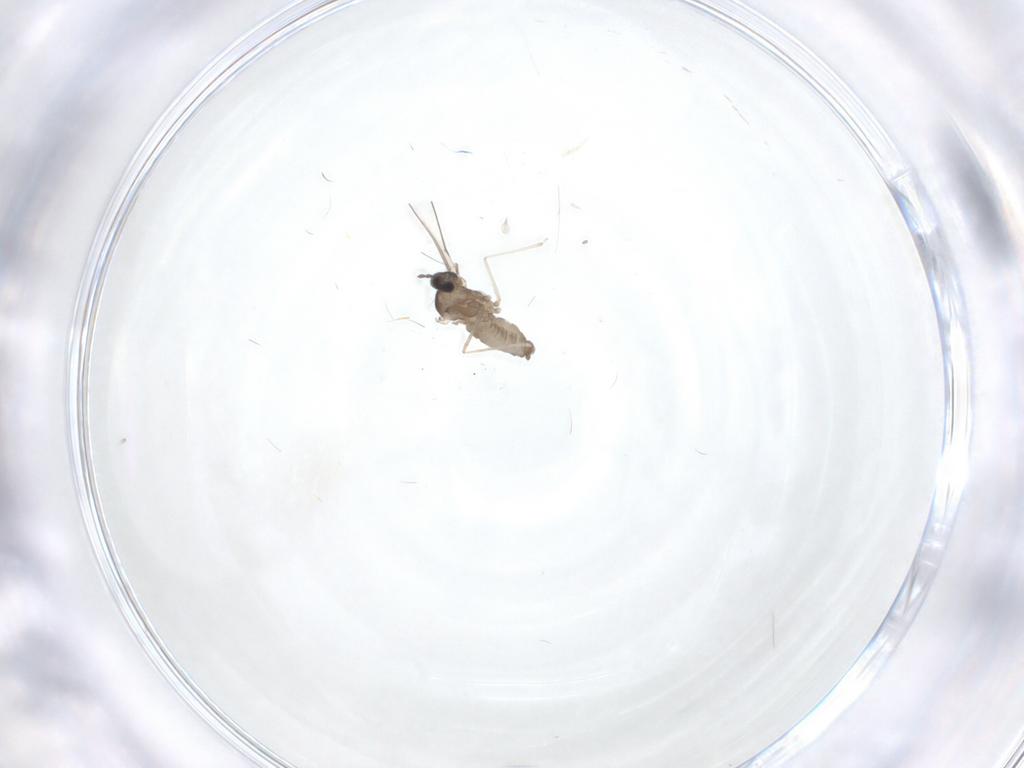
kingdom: Animalia
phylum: Arthropoda
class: Insecta
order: Diptera
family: Cecidomyiidae
